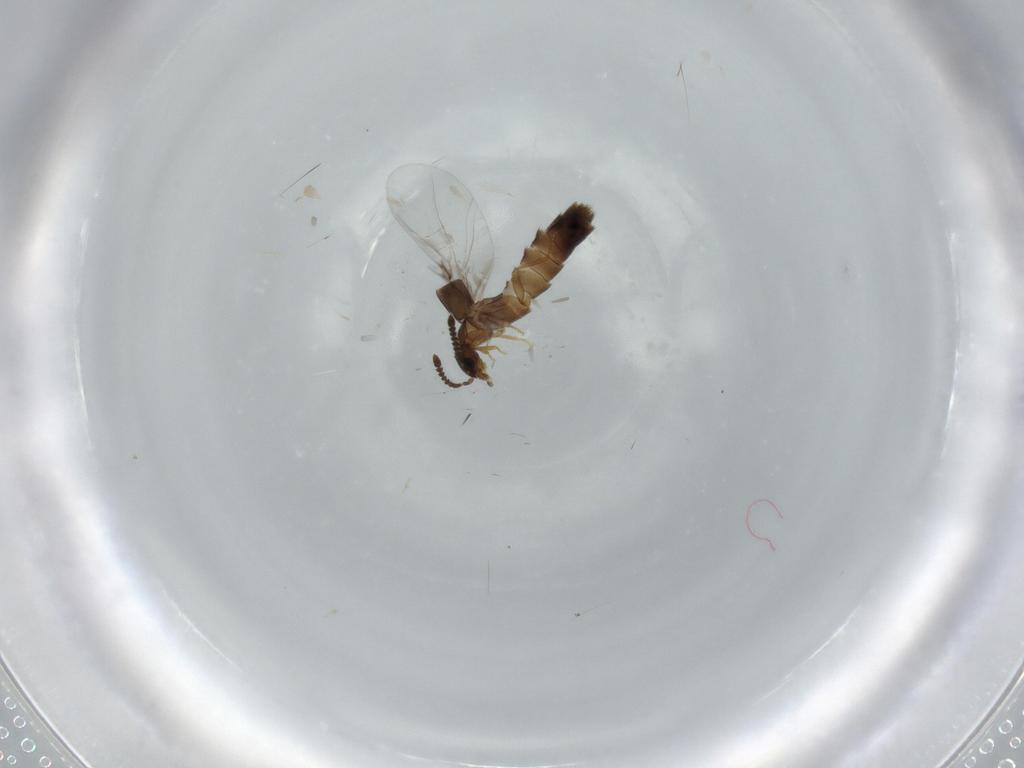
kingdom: Animalia
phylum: Arthropoda
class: Insecta
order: Coleoptera
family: Staphylinidae
